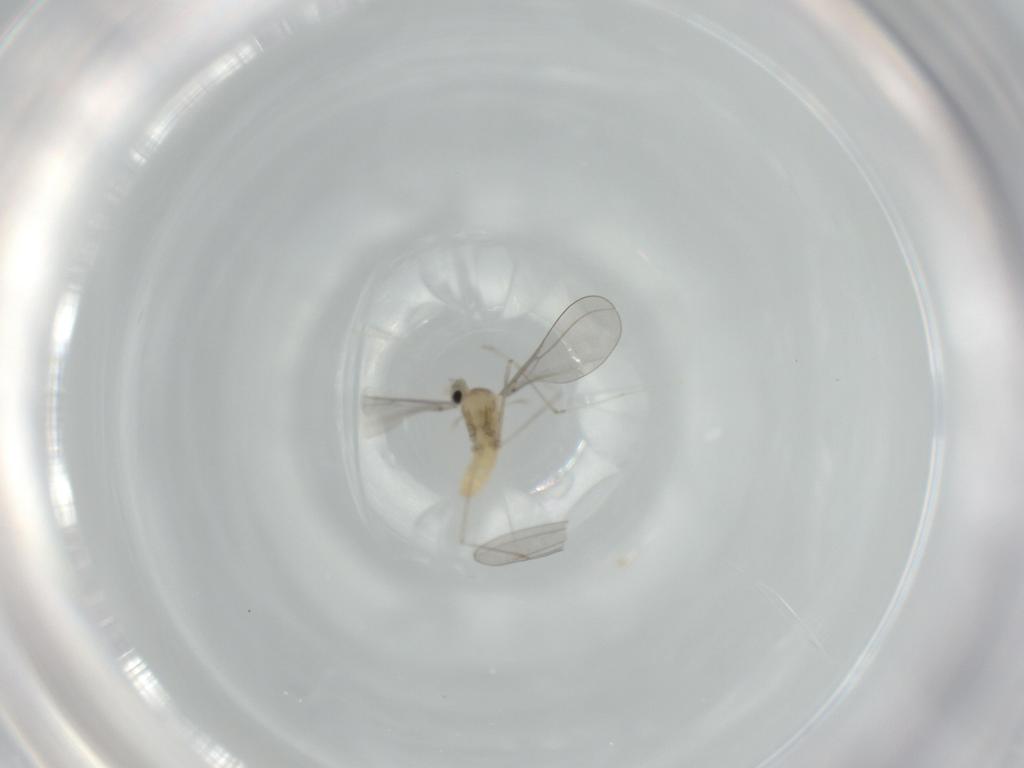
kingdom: Animalia
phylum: Arthropoda
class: Insecta
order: Diptera
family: Cecidomyiidae
